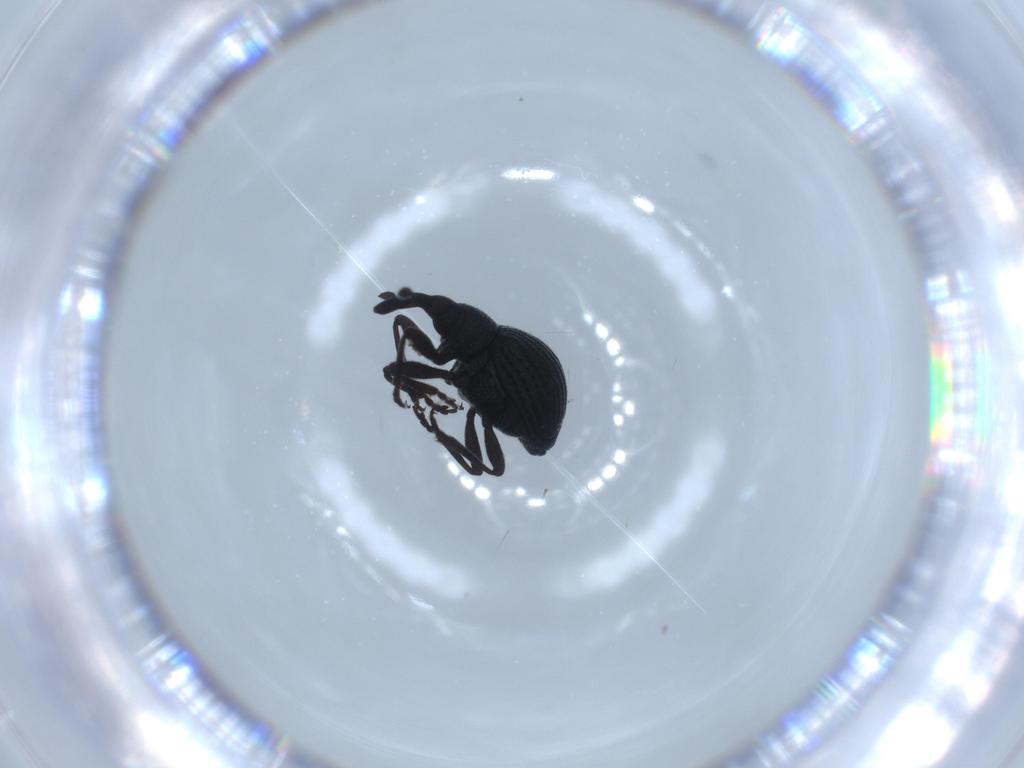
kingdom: Animalia
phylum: Arthropoda
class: Insecta
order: Coleoptera
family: Brentidae
